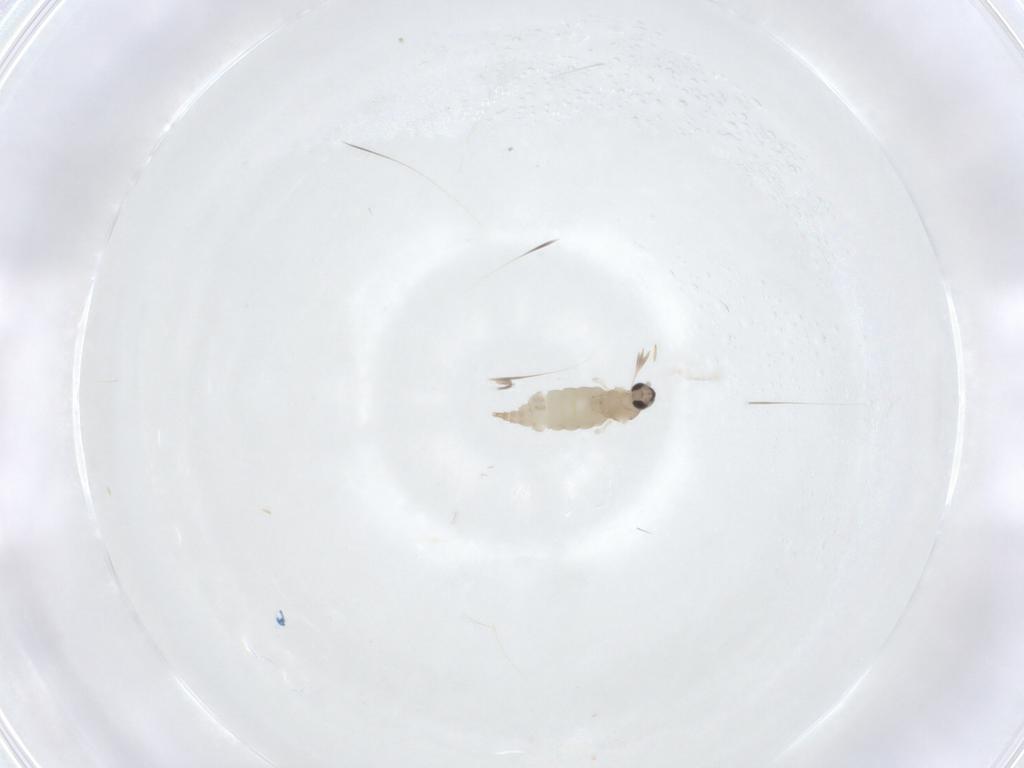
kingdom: Animalia
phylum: Arthropoda
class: Insecta
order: Diptera
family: Cecidomyiidae
